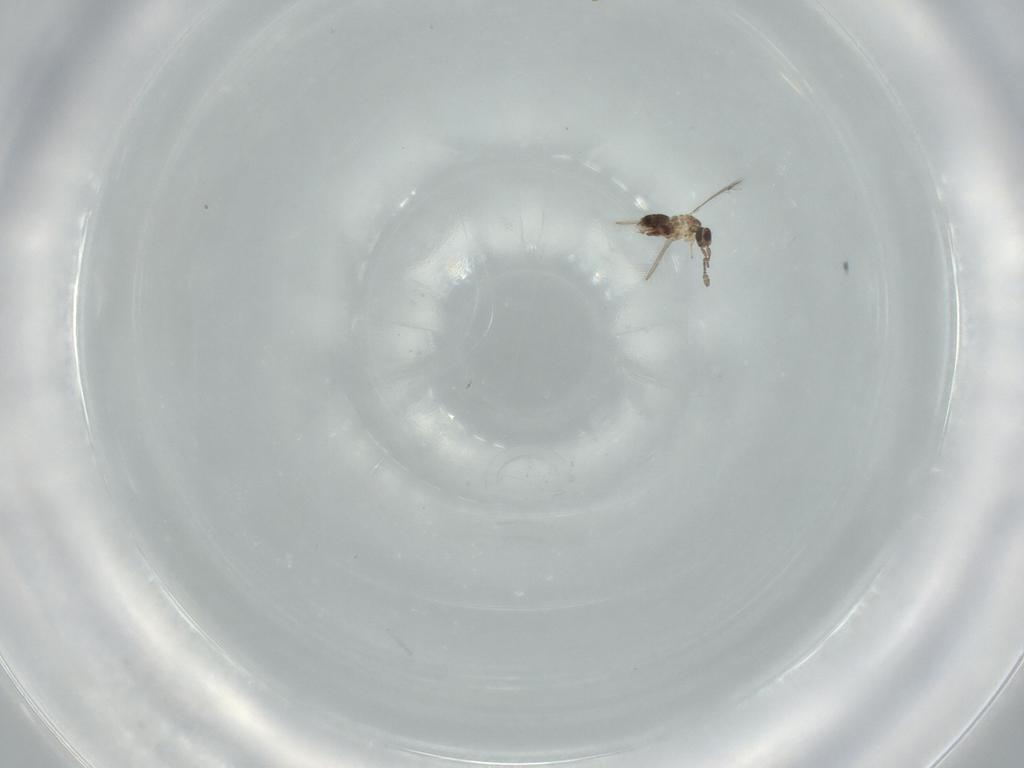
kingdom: Animalia
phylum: Arthropoda
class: Insecta
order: Hymenoptera
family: Mymaridae
